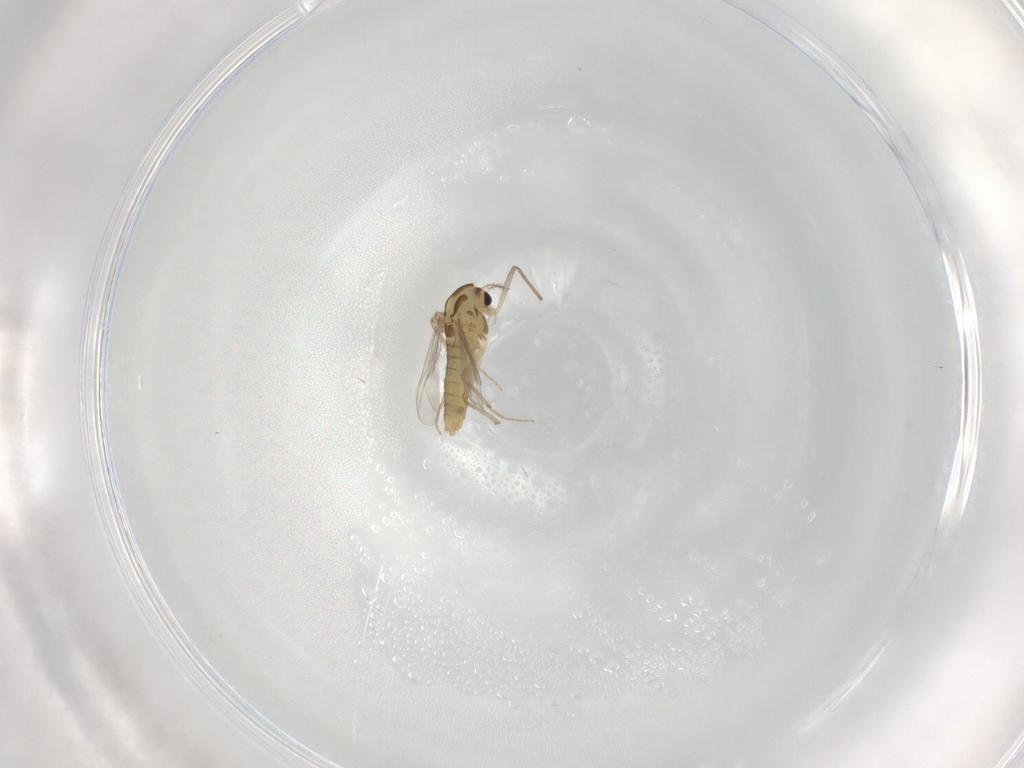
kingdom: Animalia
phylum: Arthropoda
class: Insecta
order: Diptera
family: Chironomidae
